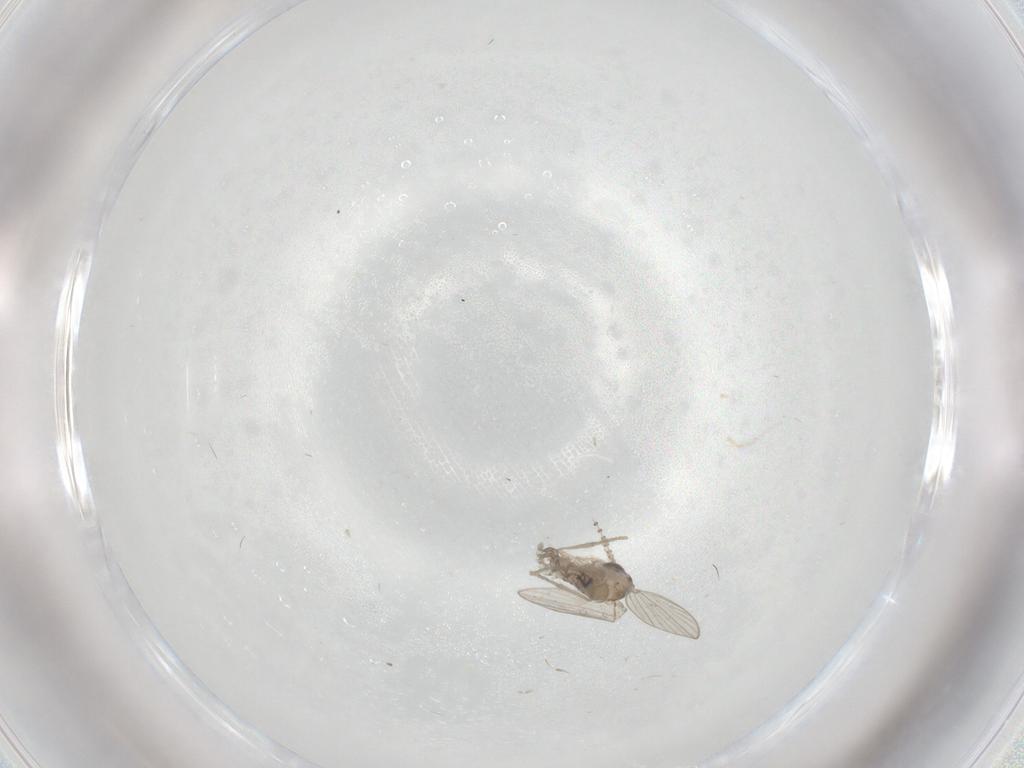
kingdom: Animalia
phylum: Arthropoda
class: Insecta
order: Diptera
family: Psychodidae
